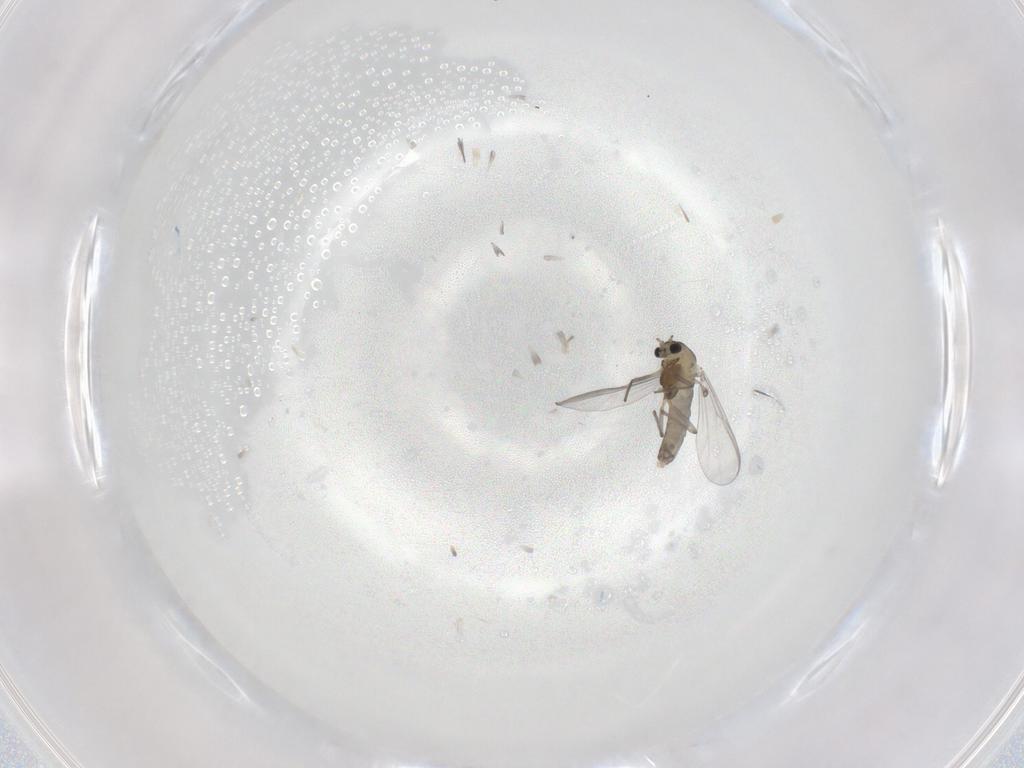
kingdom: Animalia
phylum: Arthropoda
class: Insecta
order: Diptera
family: Chironomidae
